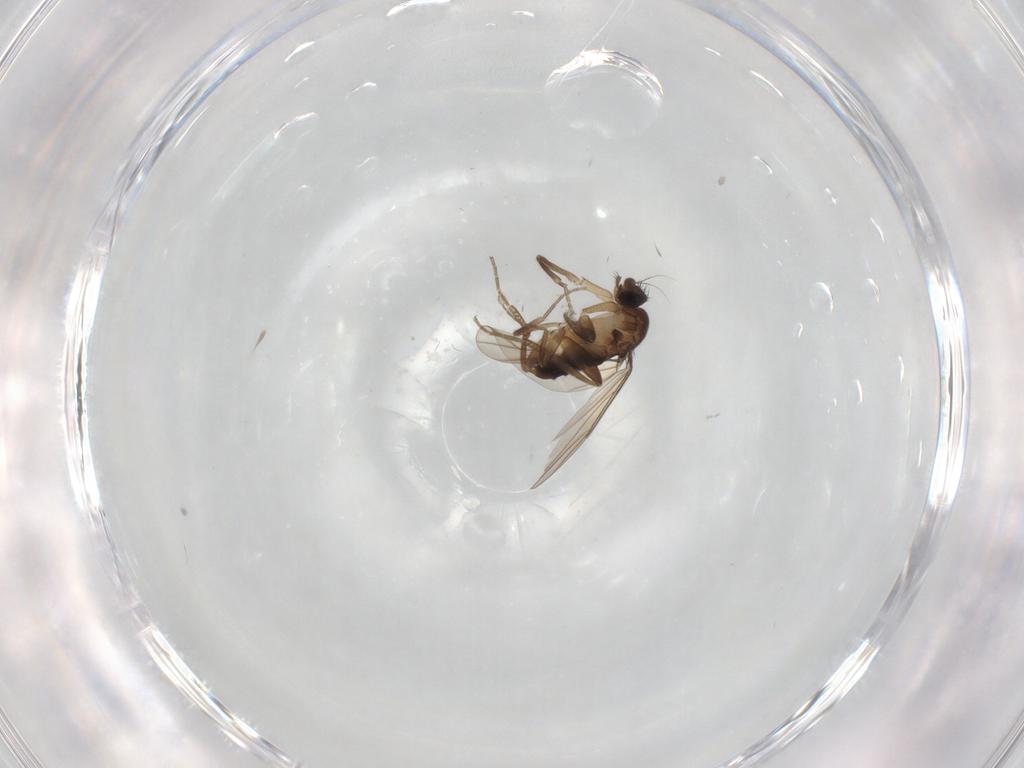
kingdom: Animalia
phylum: Arthropoda
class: Insecta
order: Diptera
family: Phoridae
